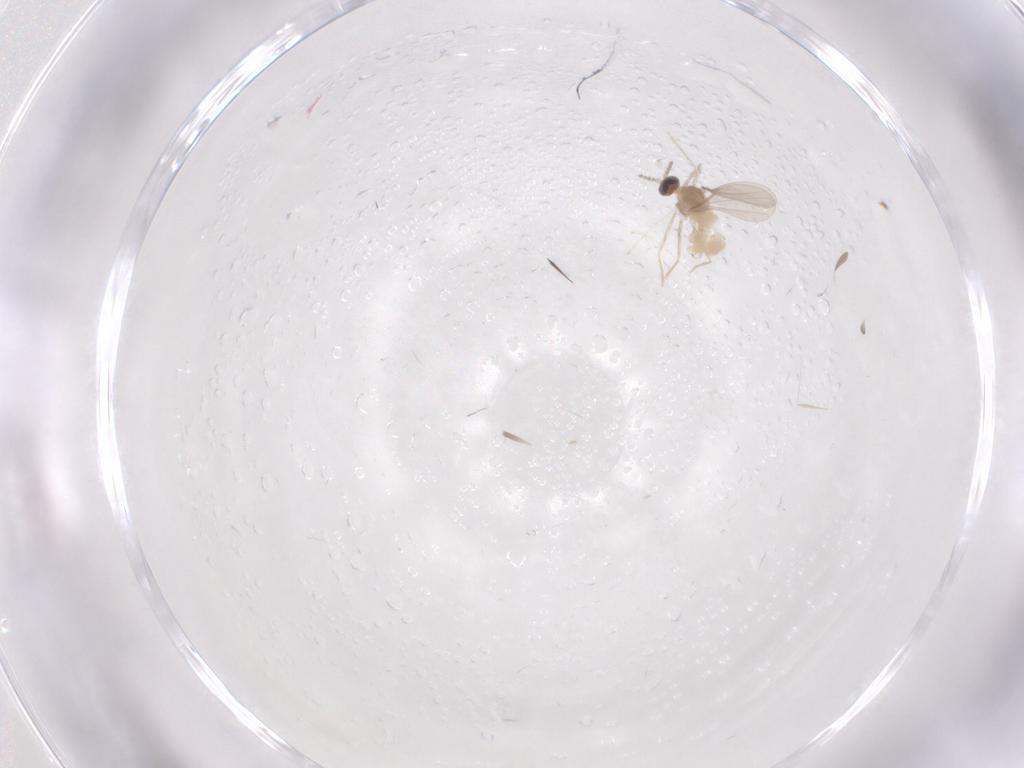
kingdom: Animalia
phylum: Arthropoda
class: Insecta
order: Diptera
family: Cecidomyiidae
